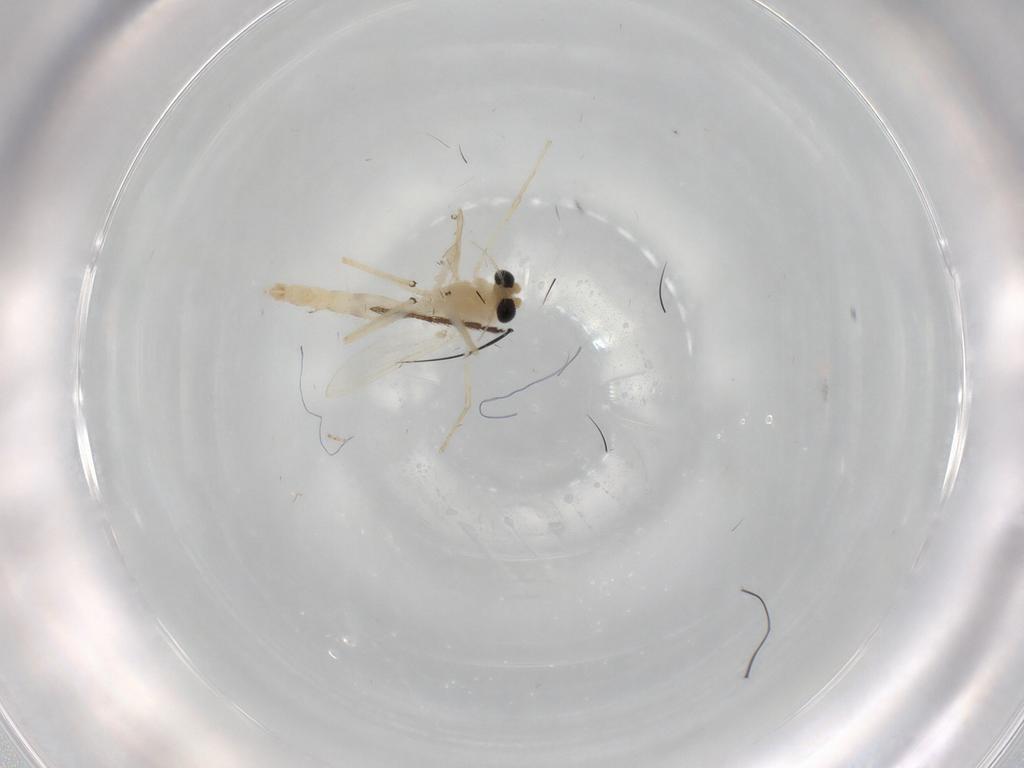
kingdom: Animalia
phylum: Arthropoda
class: Insecta
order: Diptera
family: Chironomidae
